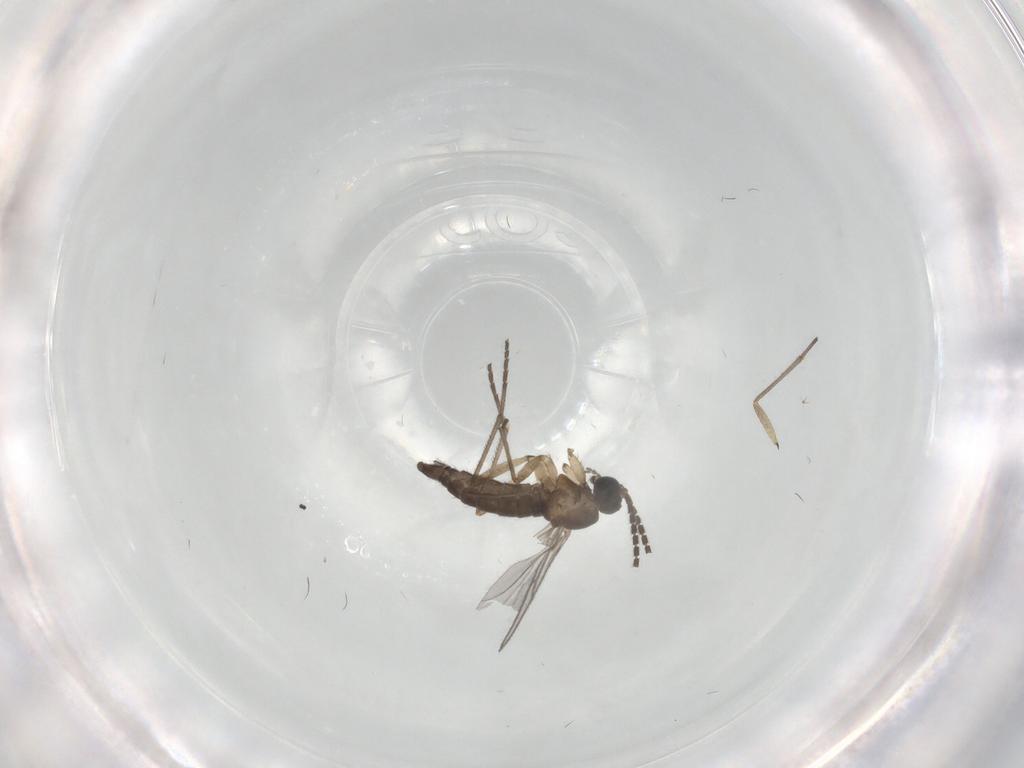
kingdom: Animalia
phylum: Arthropoda
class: Insecta
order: Diptera
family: Sciaridae
